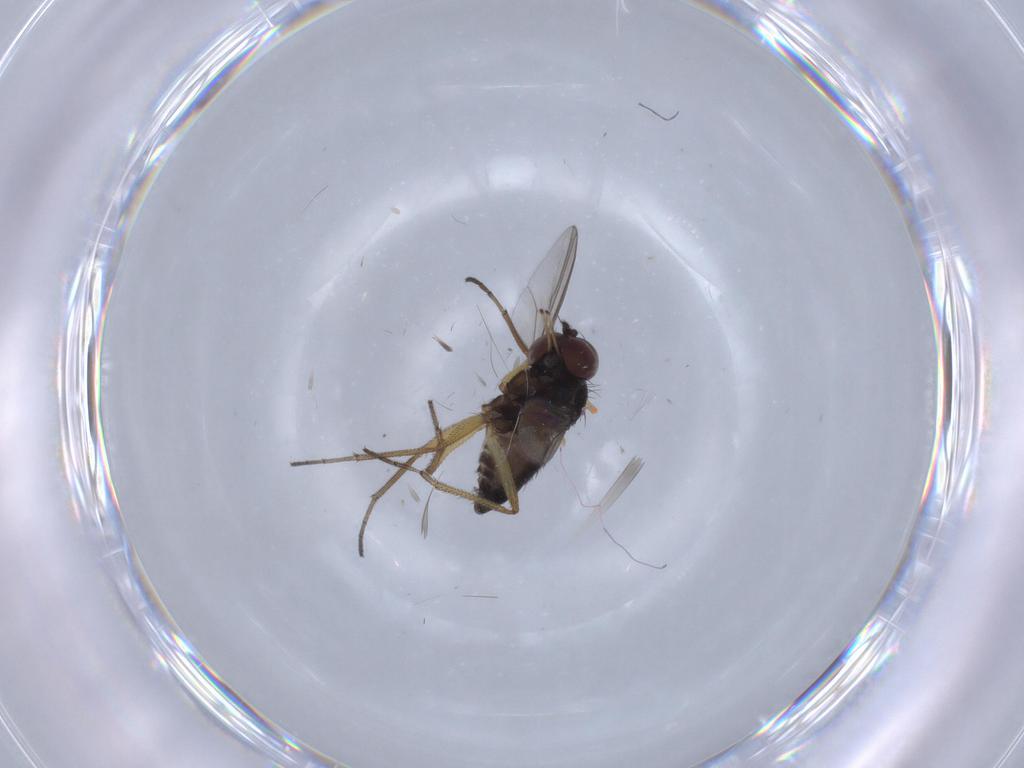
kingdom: Animalia
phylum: Arthropoda
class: Insecta
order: Diptera
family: Dolichopodidae
